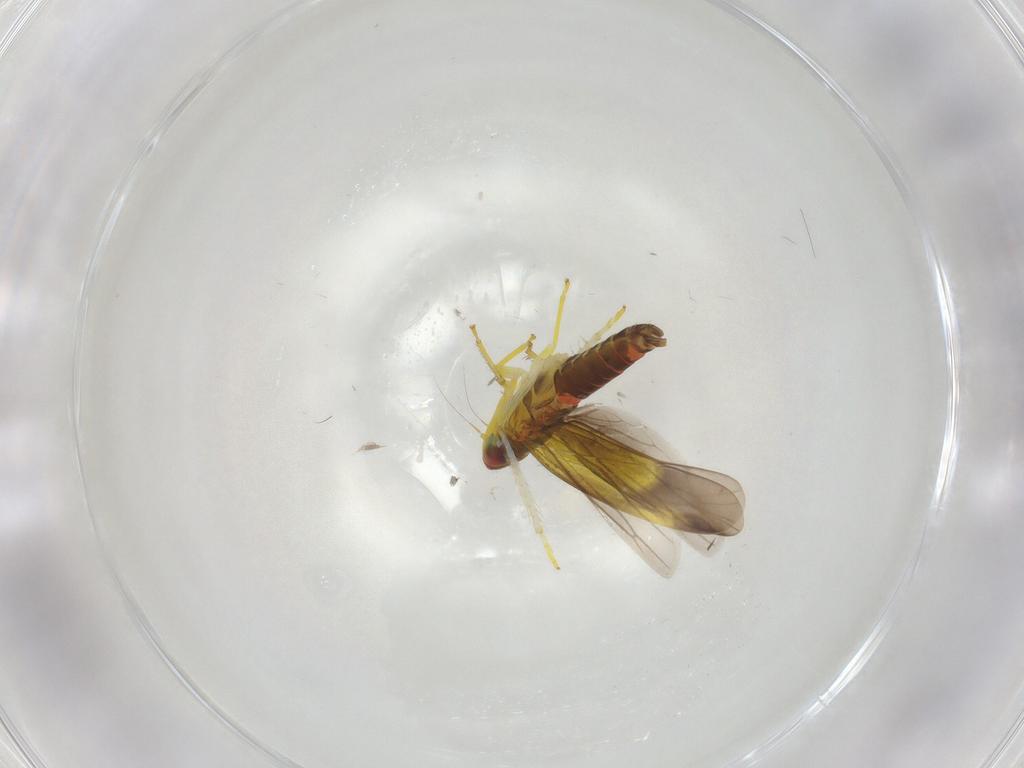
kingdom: Animalia
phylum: Arthropoda
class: Insecta
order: Hemiptera
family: Cicadellidae
